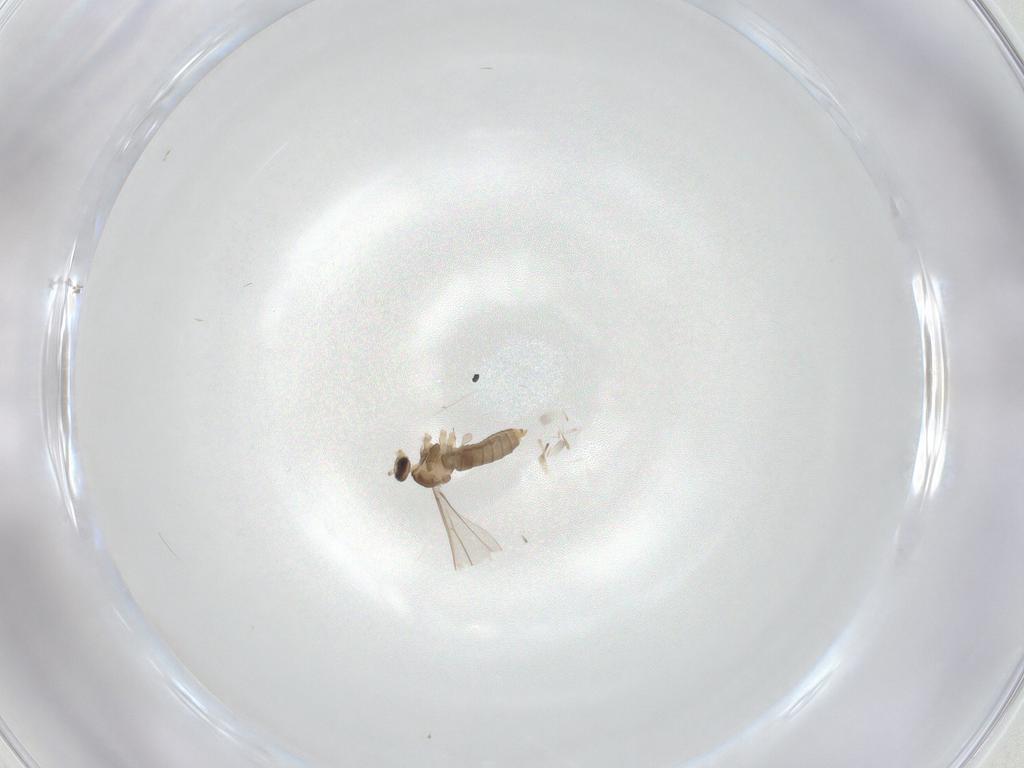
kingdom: Animalia
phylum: Arthropoda
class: Insecta
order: Diptera
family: Cecidomyiidae
